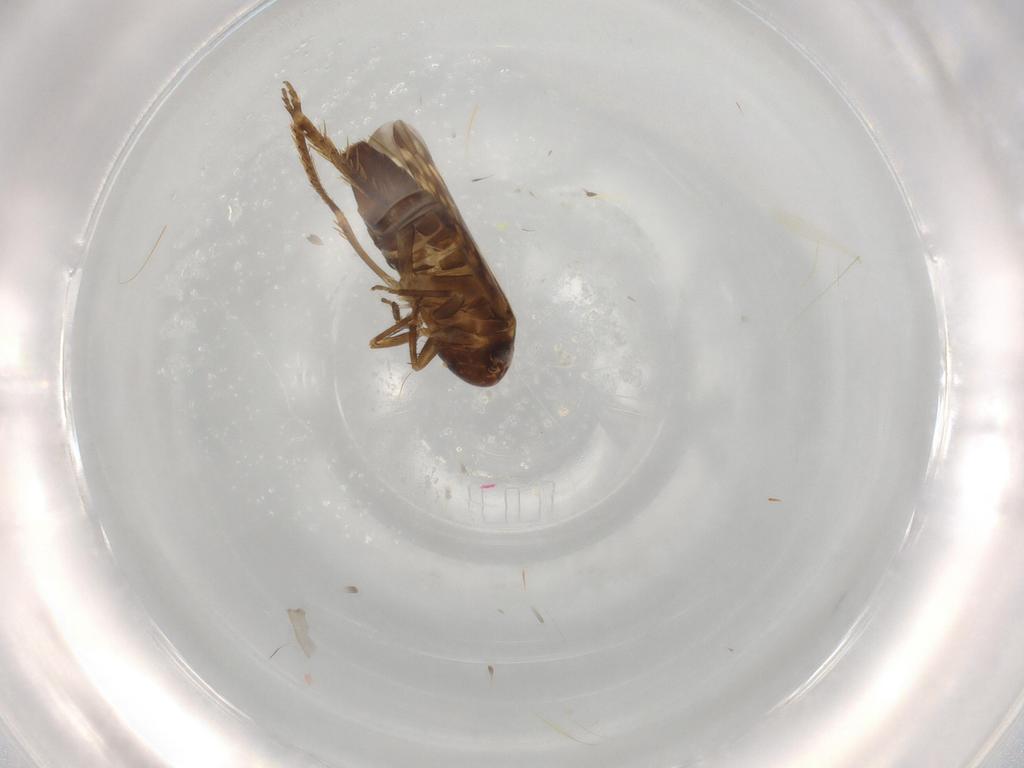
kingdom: Animalia
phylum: Arthropoda
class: Insecta
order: Hemiptera
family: Cicadellidae
